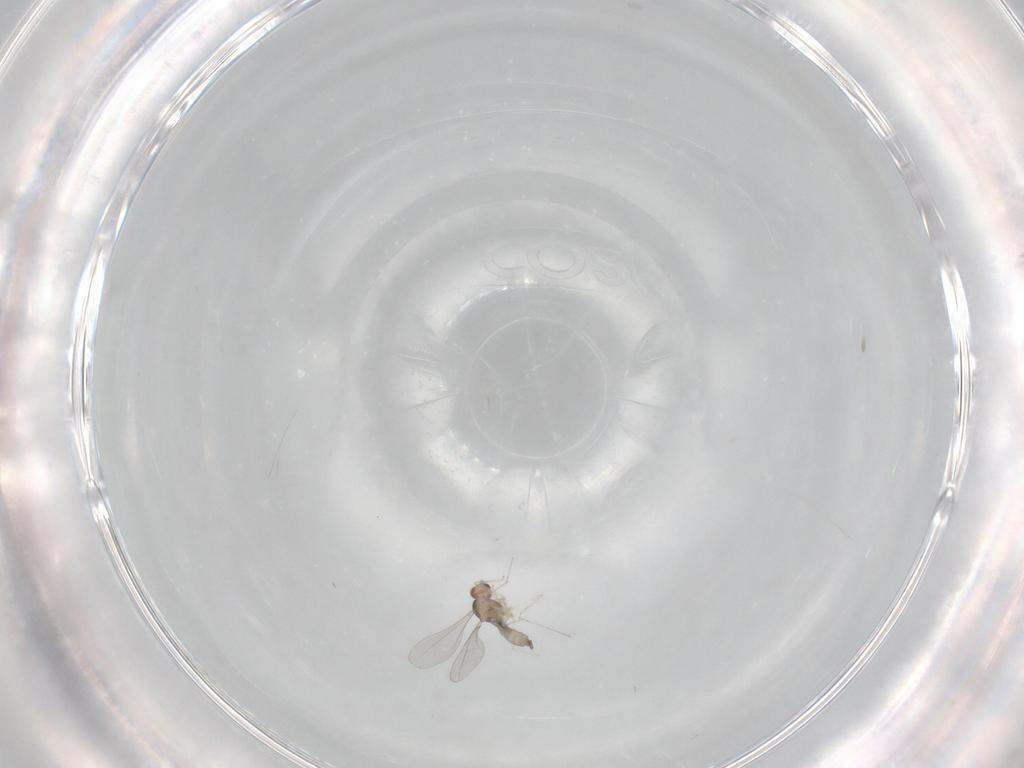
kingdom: Animalia
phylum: Arthropoda
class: Insecta
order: Diptera
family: Cecidomyiidae
